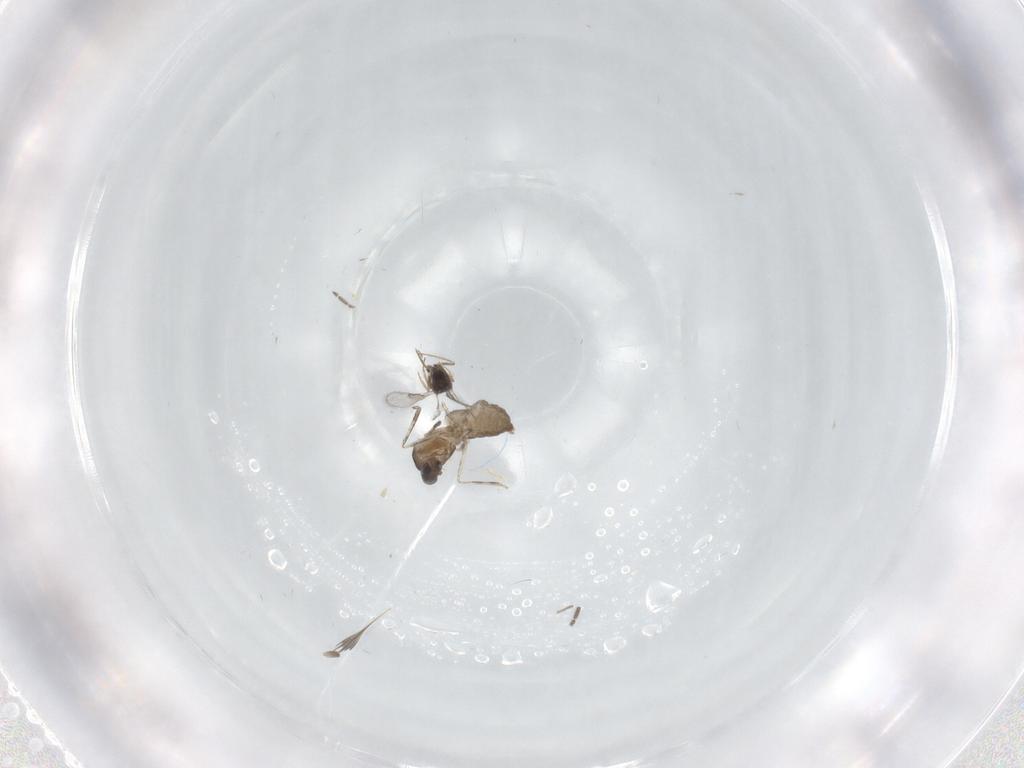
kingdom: Animalia
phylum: Arthropoda
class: Insecta
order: Diptera
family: Cecidomyiidae
